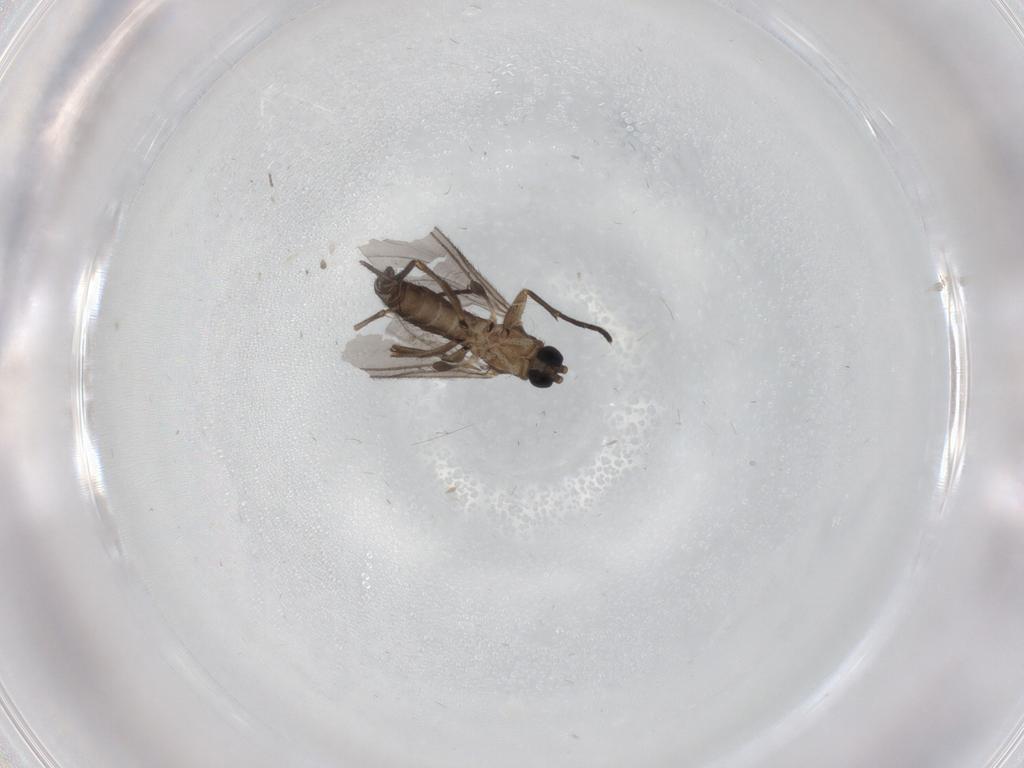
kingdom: Animalia
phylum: Arthropoda
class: Insecta
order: Diptera
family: Sciaridae
